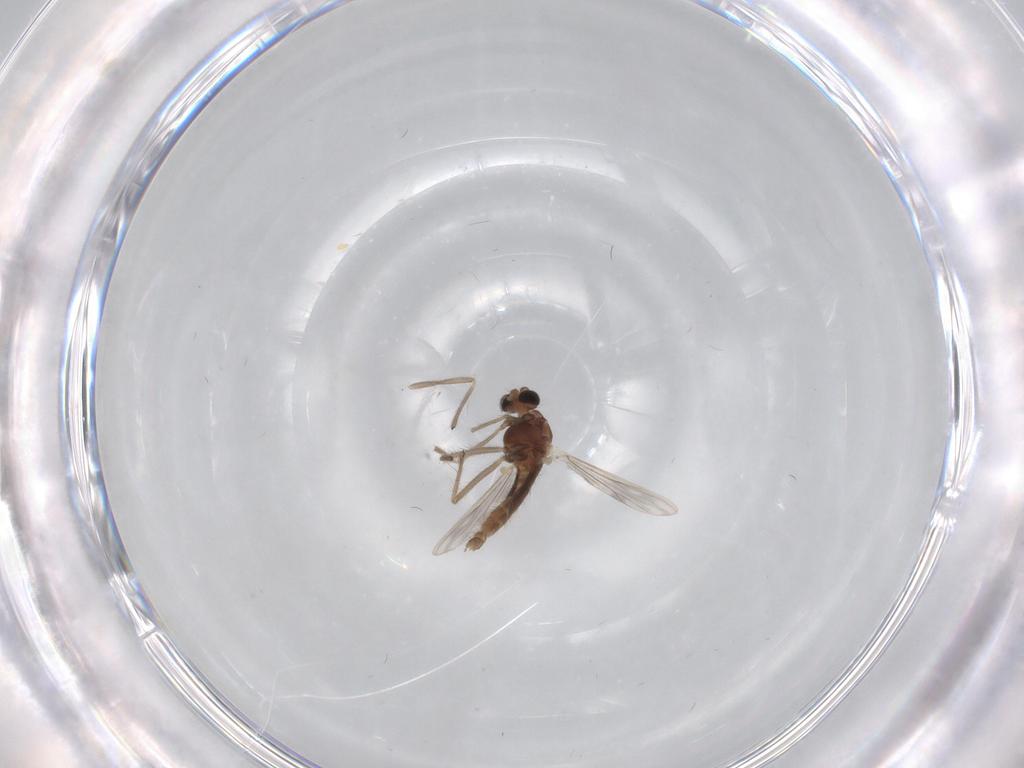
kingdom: Animalia
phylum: Arthropoda
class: Insecta
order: Diptera
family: Chironomidae
